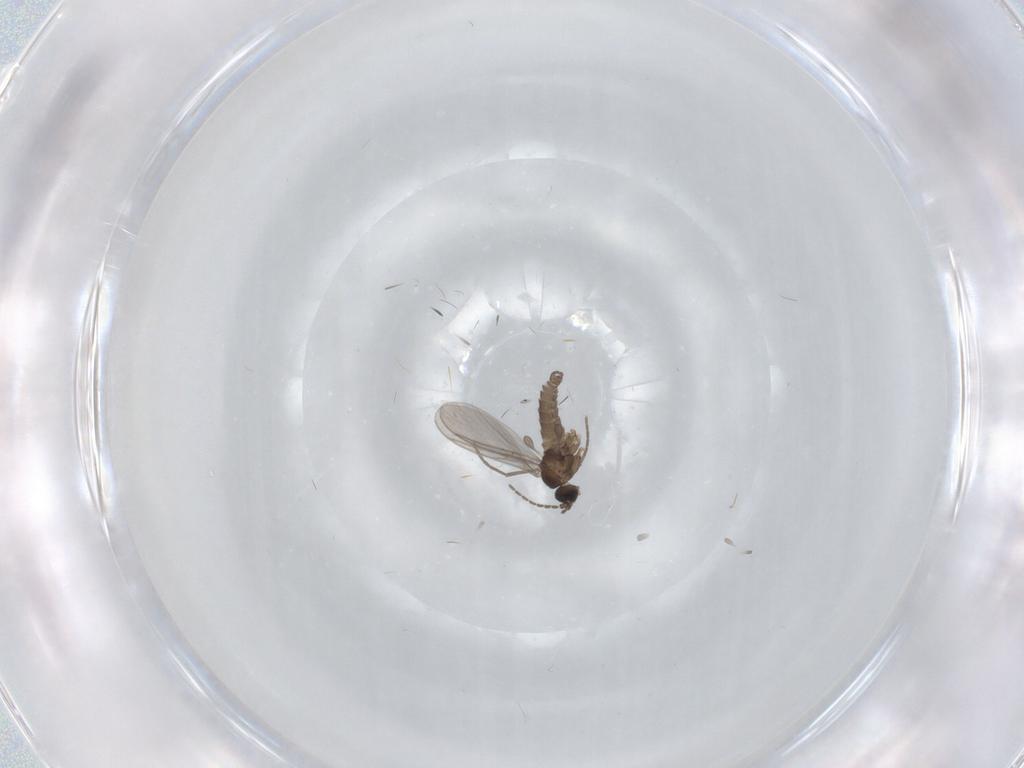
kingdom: Animalia
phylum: Arthropoda
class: Insecta
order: Diptera
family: Sciaridae
